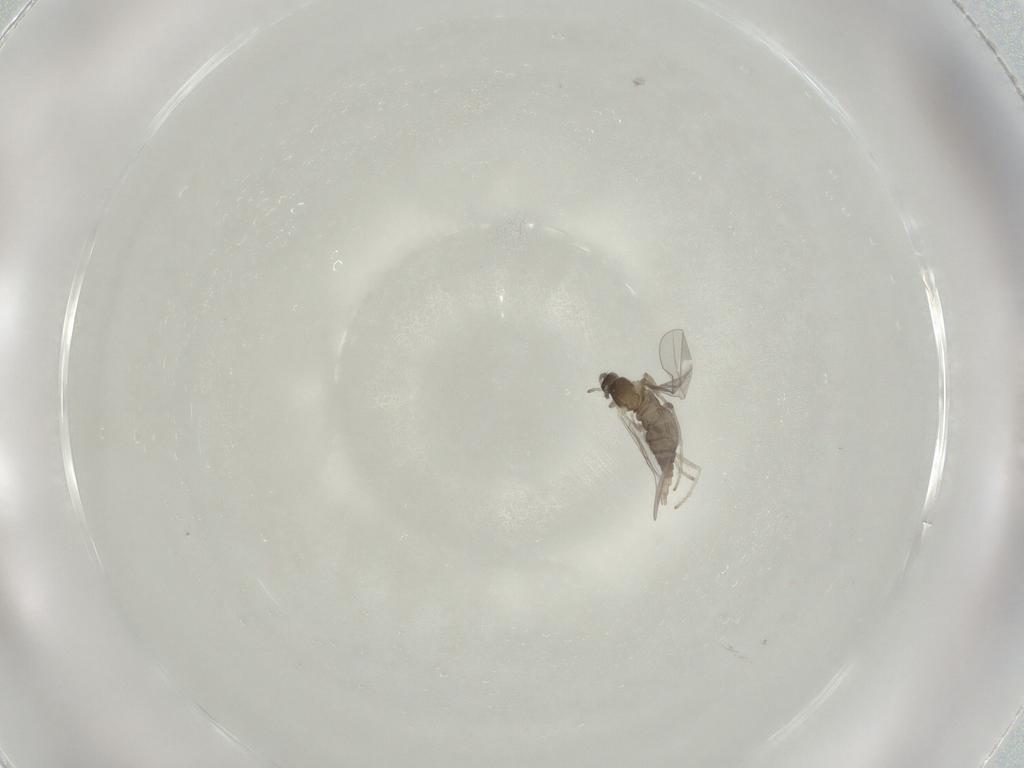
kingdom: Animalia
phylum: Arthropoda
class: Insecta
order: Diptera
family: Cecidomyiidae
